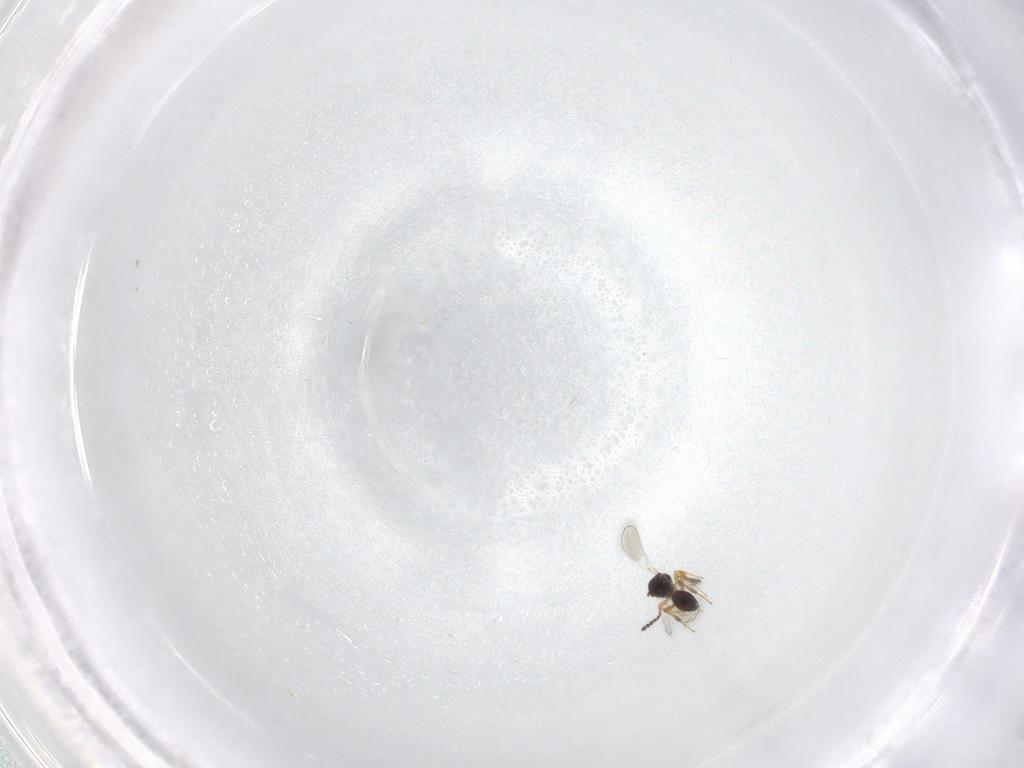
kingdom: Animalia
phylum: Arthropoda
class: Insecta
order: Hymenoptera
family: Platygastridae
